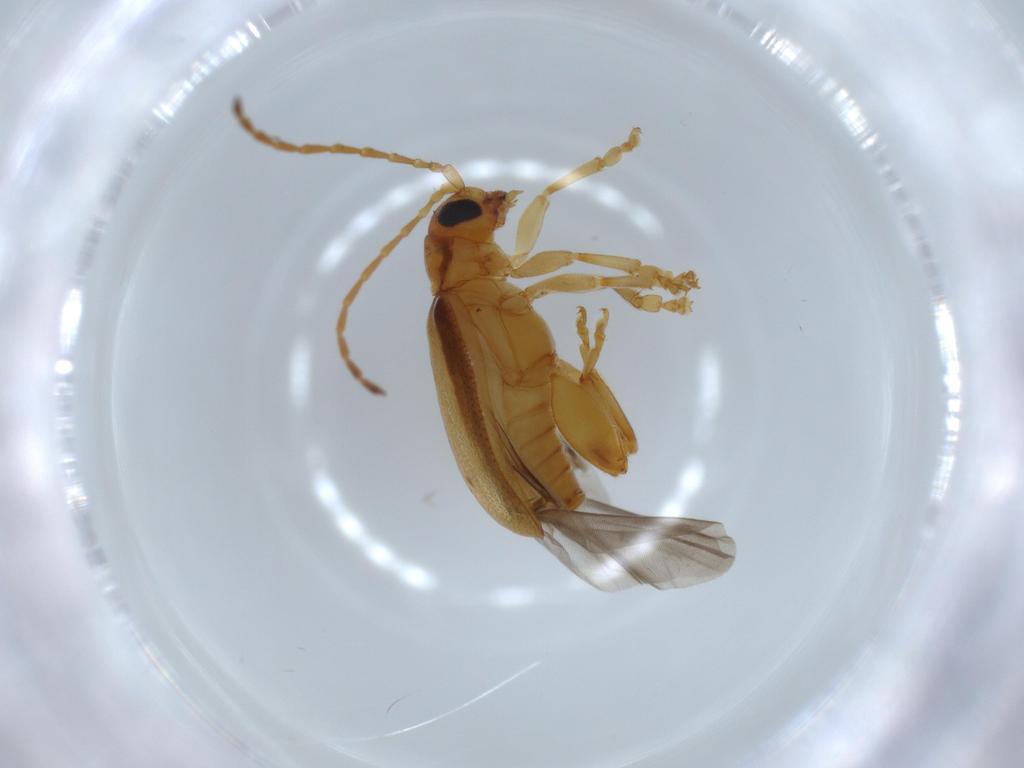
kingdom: Animalia
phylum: Arthropoda
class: Insecta
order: Coleoptera
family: Chrysomelidae
